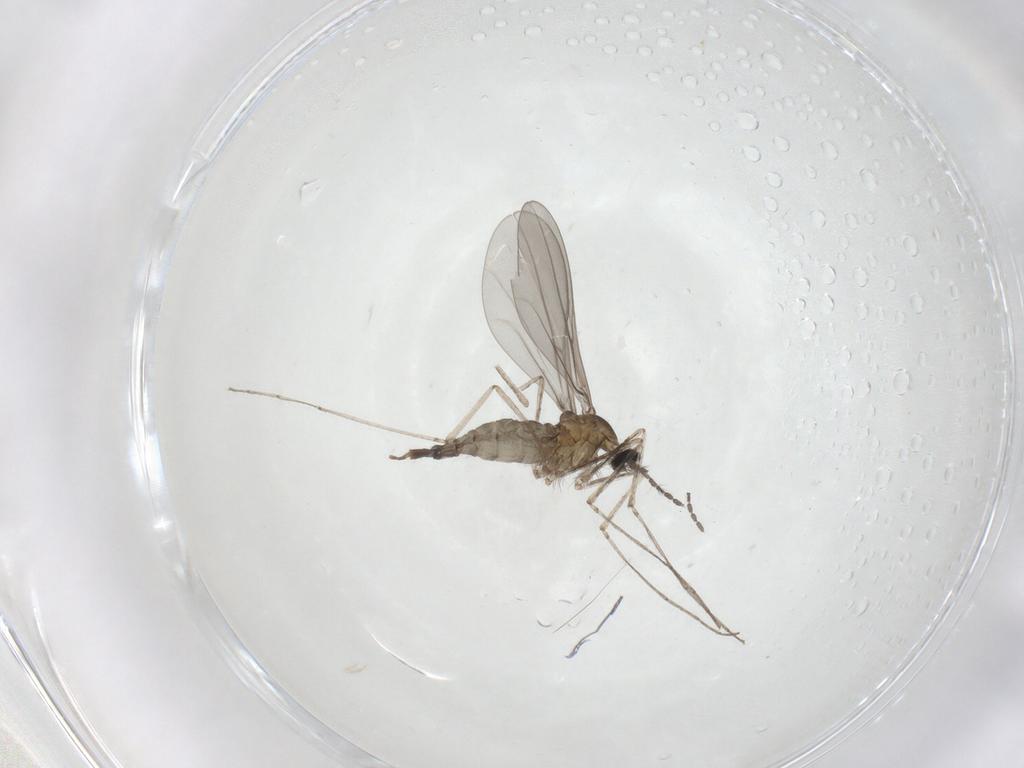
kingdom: Animalia
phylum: Arthropoda
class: Insecta
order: Diptera
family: Cecidomyiidae
